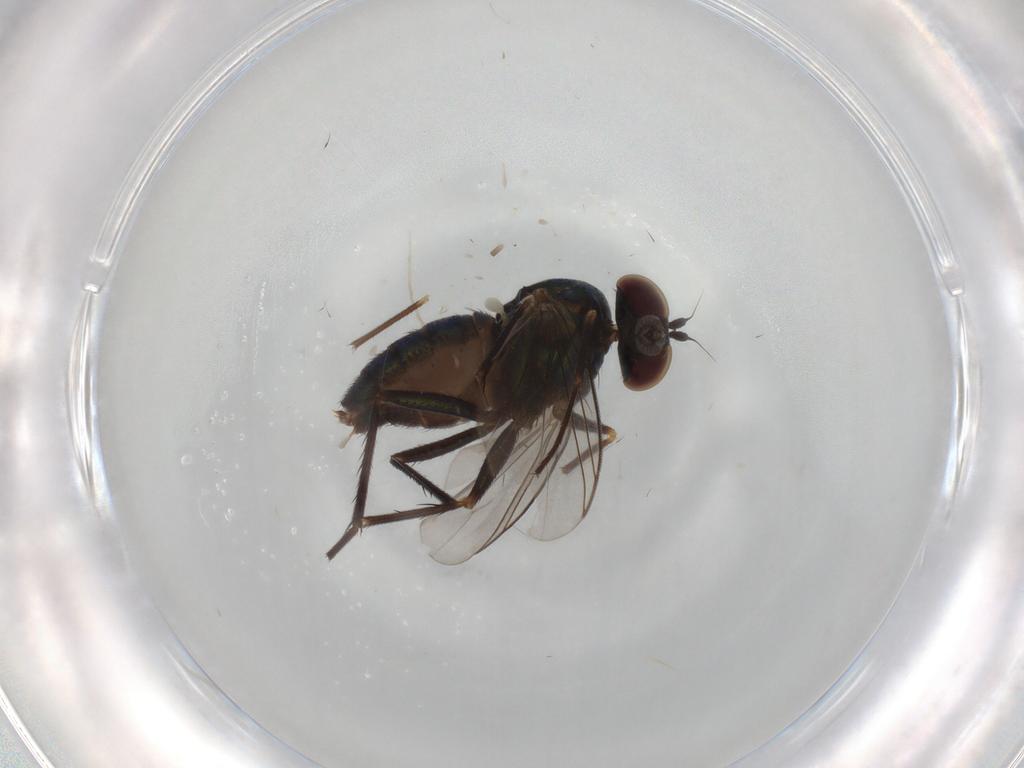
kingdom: Animalia
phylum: Arthropoda
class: Insecta
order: Diptera
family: Dolichopodidae
